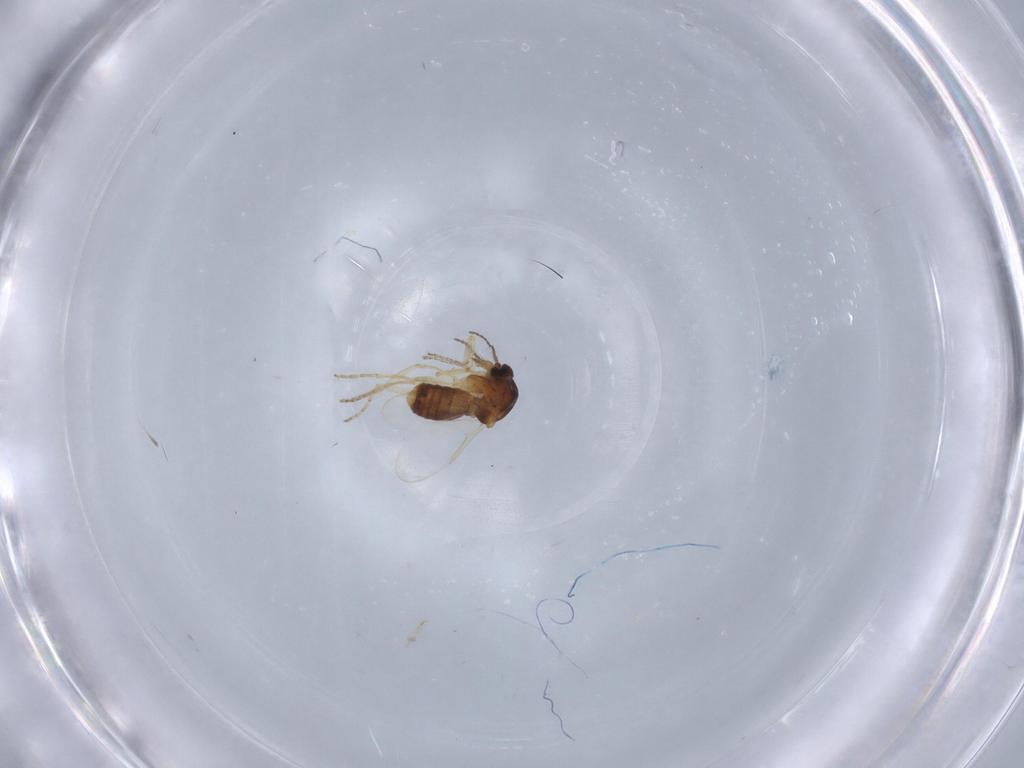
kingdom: Animalia
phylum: Arthropoda
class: Insecta
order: Diptera
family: Ceratopogonidae
